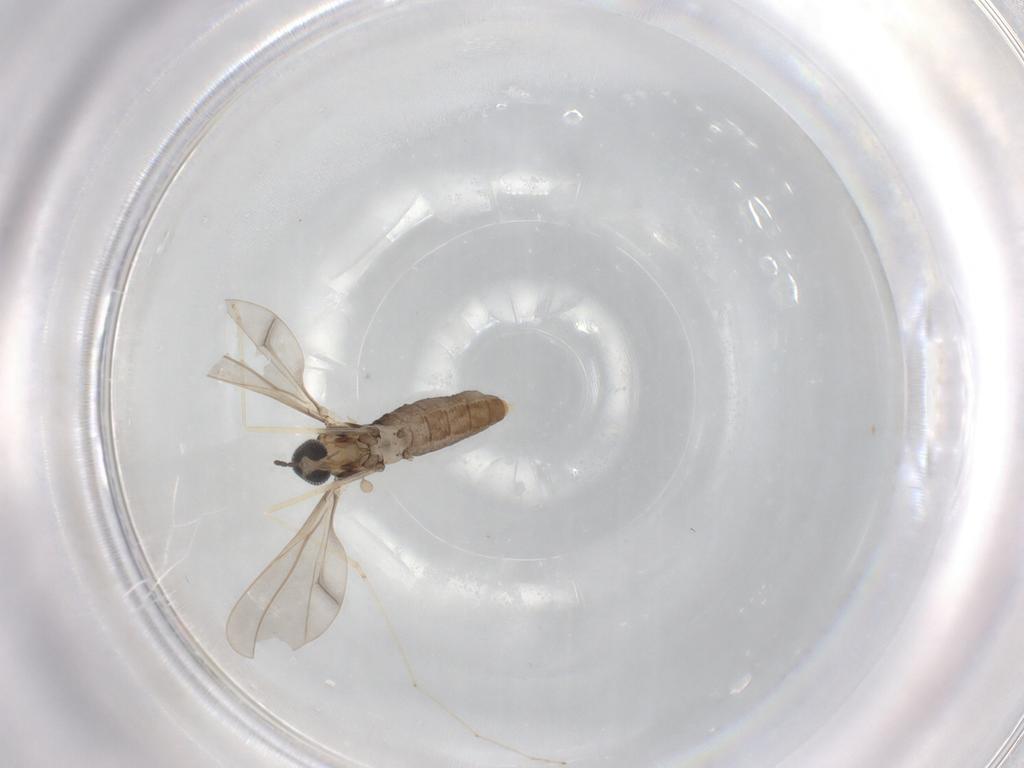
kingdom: Animalia
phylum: Arthropoda
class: Insecta
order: Diptera
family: Cecidomyiidae
